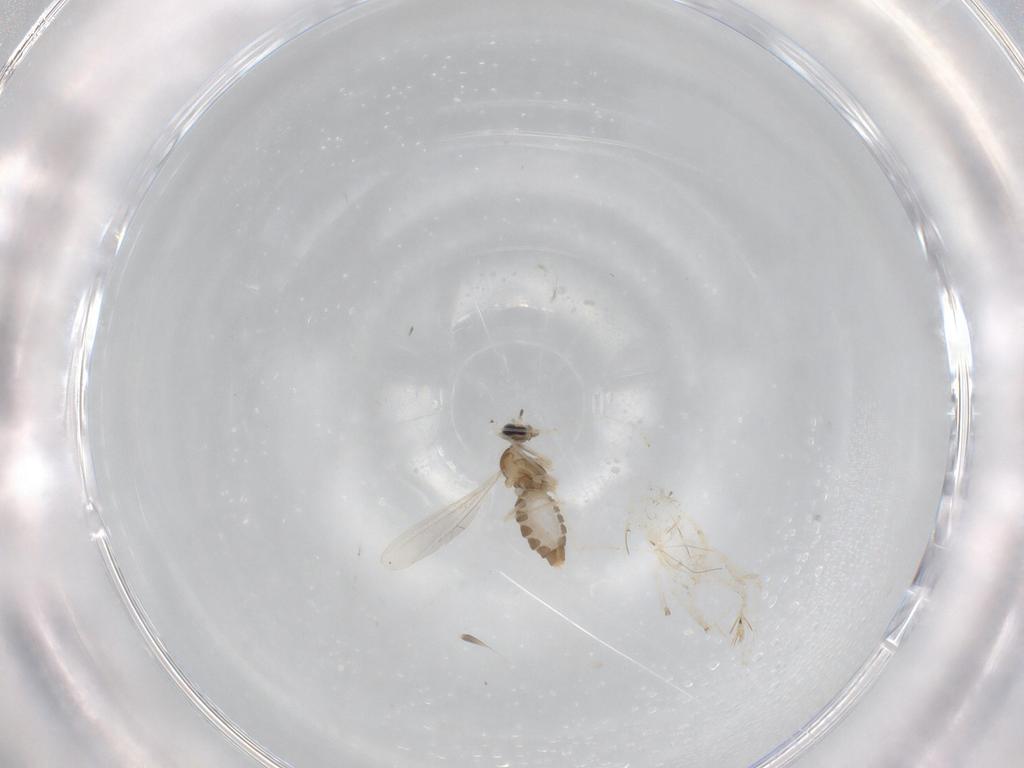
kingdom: Animalia
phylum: Arthropoda
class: Insecta
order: Diptera
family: Cecidomyiidae
